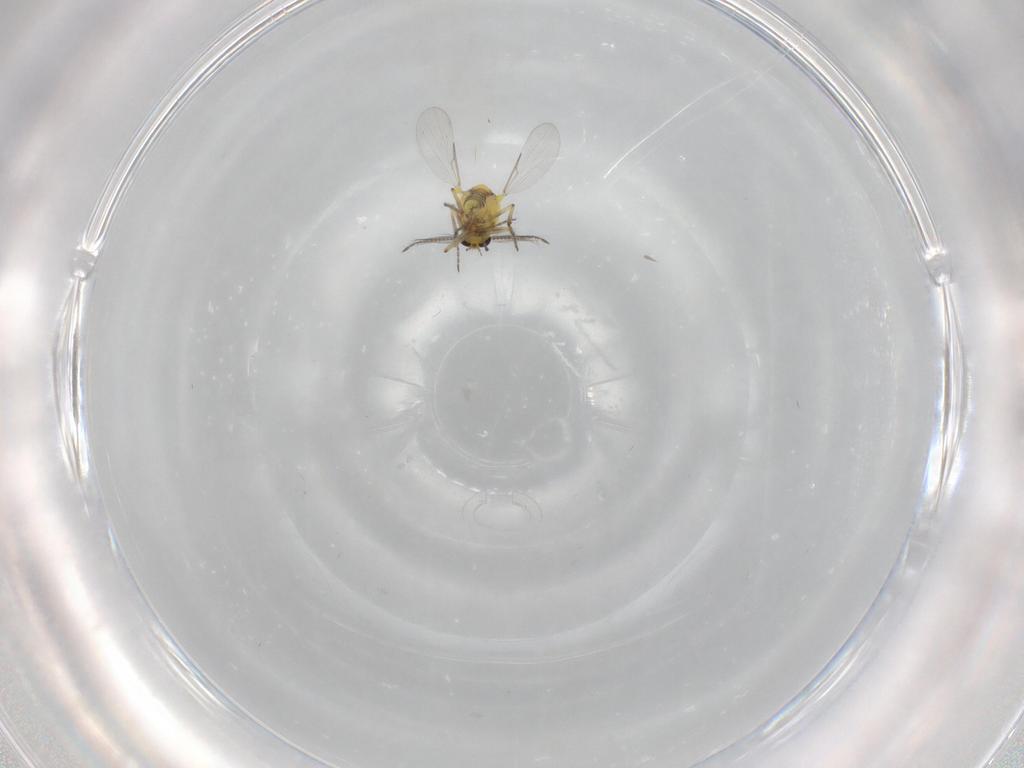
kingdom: Animalia
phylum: Arthropoda
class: Insecta
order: Diptera
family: Ceratopogonidae
